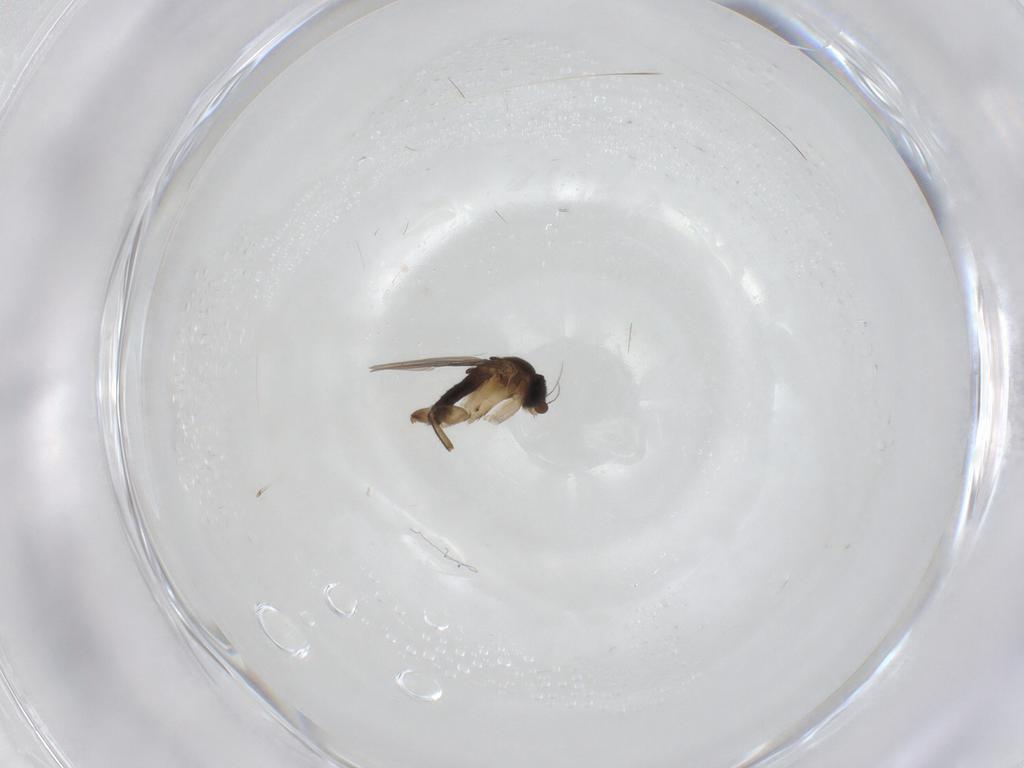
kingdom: Animalia
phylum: Arthropoda
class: Insecta
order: Diptera
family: Phoridae
